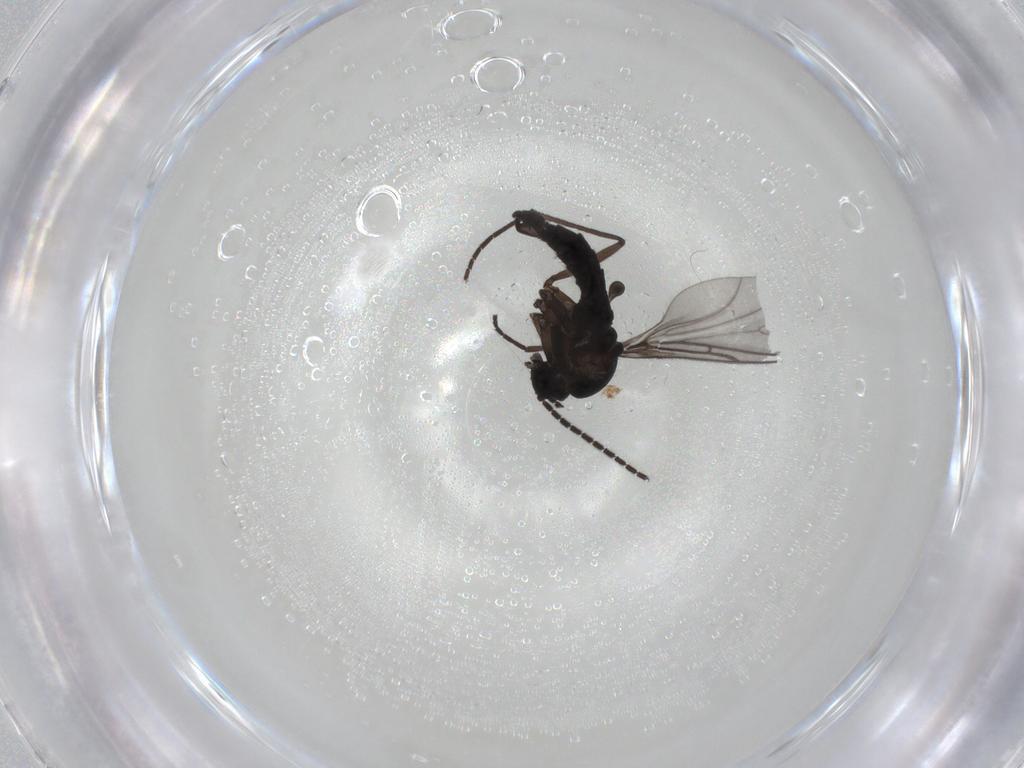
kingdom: Animalia
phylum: Arthropoda
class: Insecta
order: Diptera
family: Sciaridae
